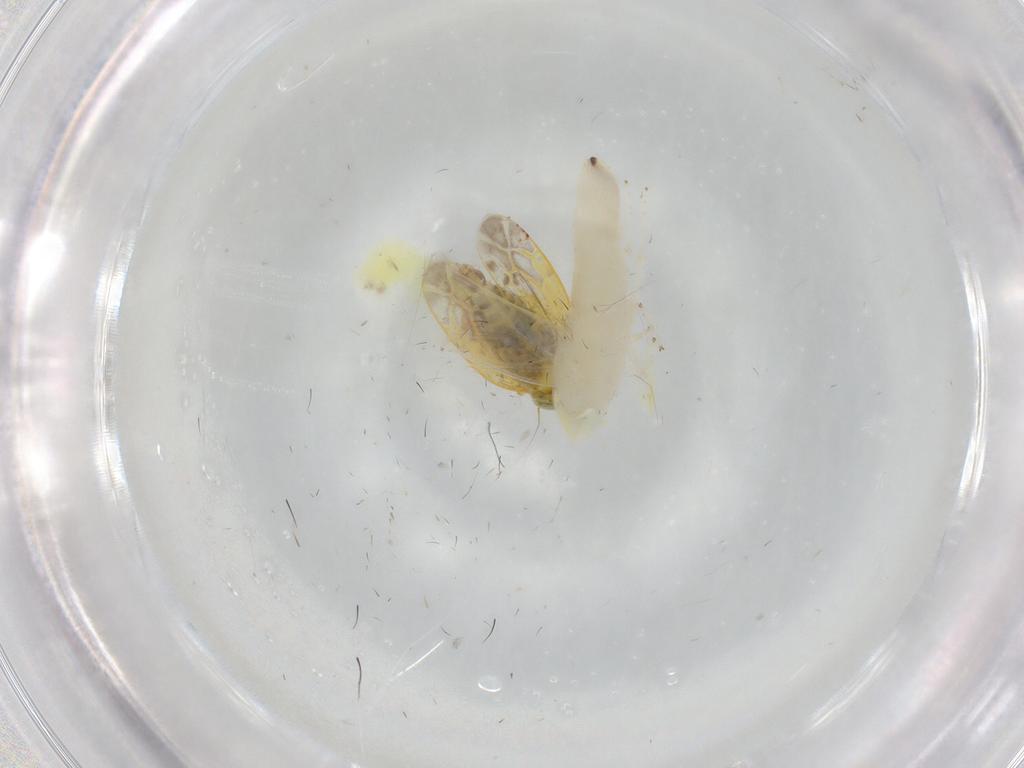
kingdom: Animalia
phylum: Arthropoda
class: Insecta
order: Hemiptera
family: Cicadellidae
